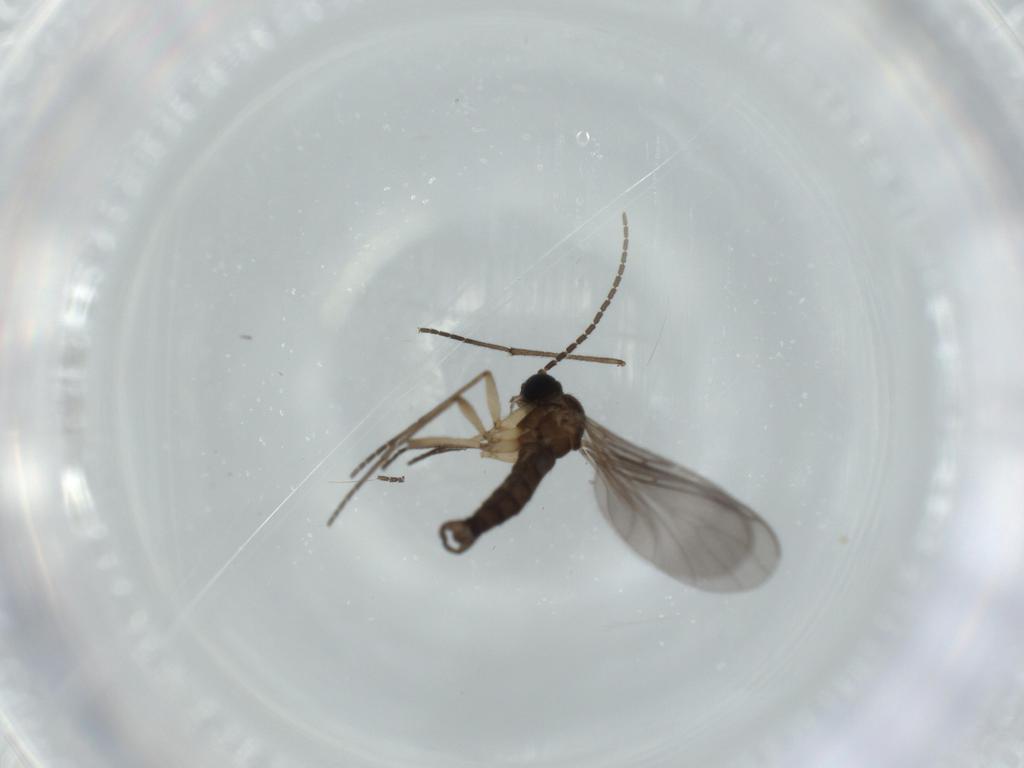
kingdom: Animalia
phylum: Arthropoda
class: Insecta
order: Diptera
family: Sciaridae
